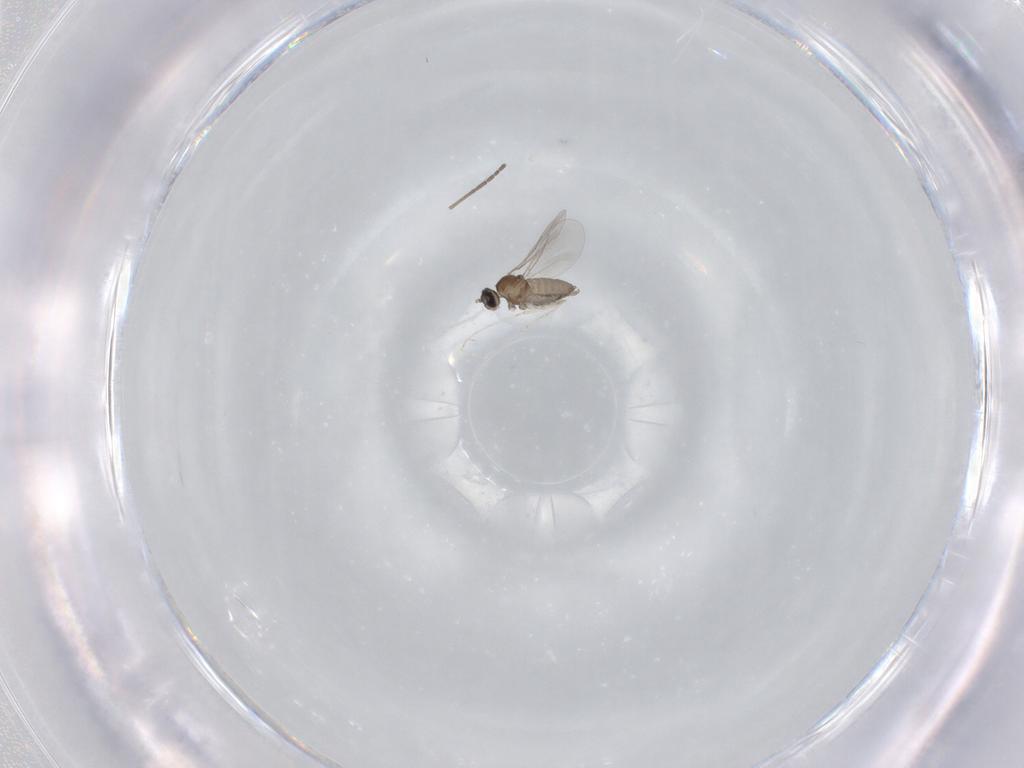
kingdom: Animalia
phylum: Arthropoda
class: Insecta
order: Diptera
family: Cecidomyiidae
